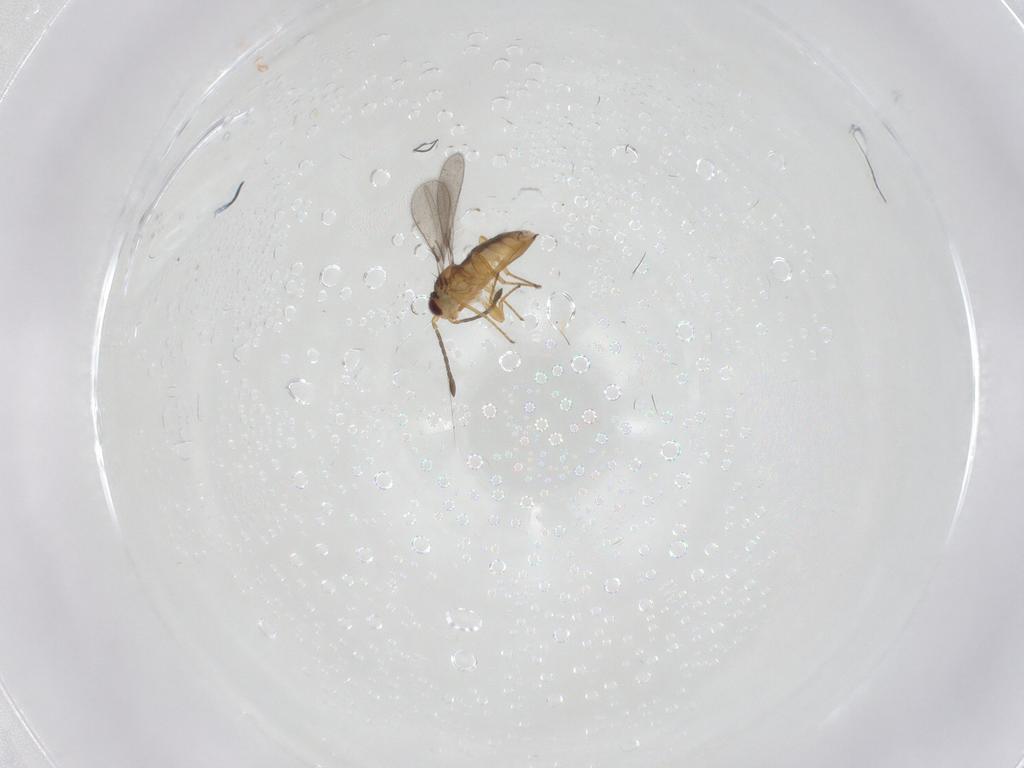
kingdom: Animalia
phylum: Arthropoda
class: Insecta
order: Hymenoptera
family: Mymaridae
